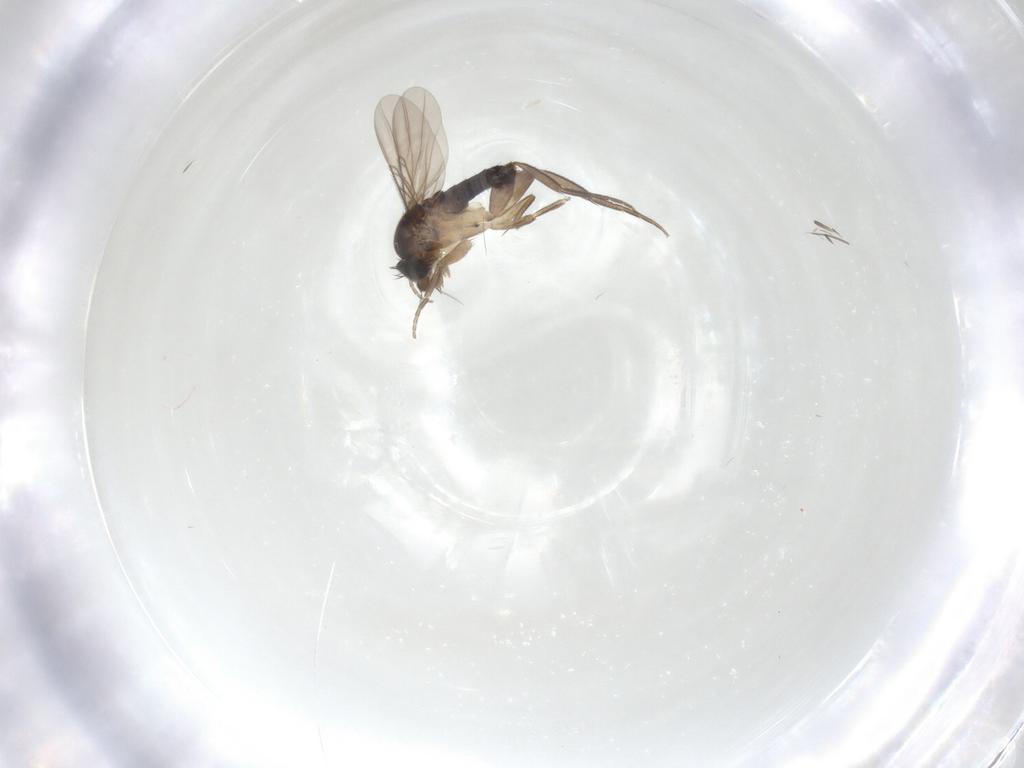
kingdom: Animalia
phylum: Arthropoda
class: Insecta
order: Diptera
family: Phoridae
